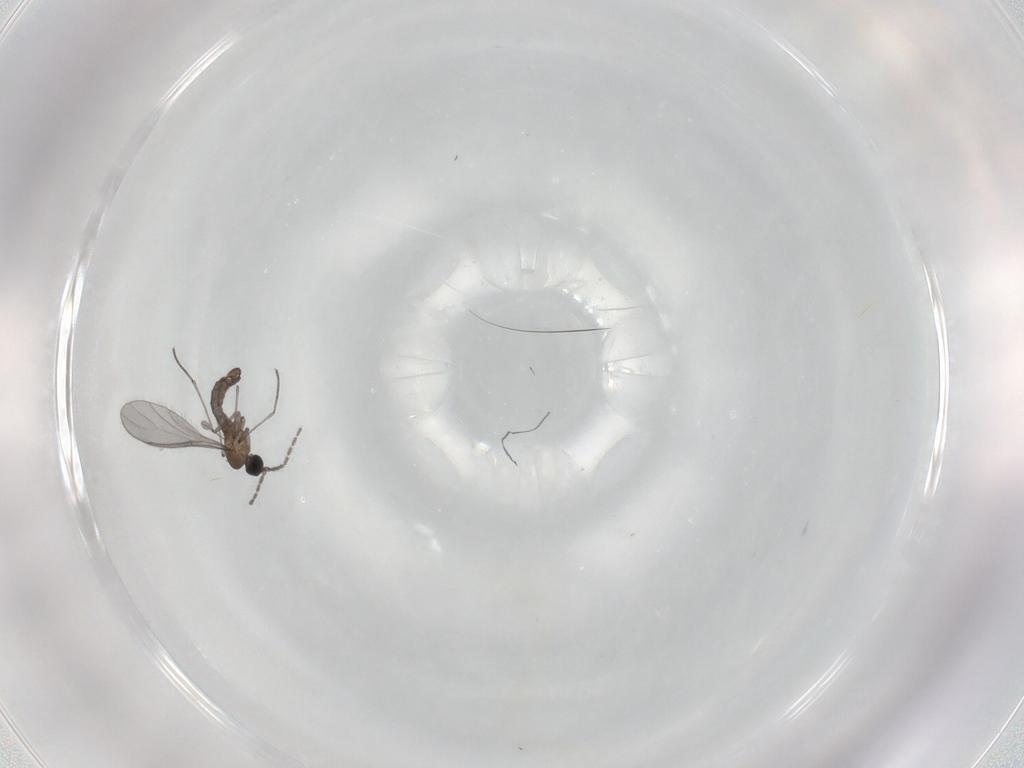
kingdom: Animalia
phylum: Arthropoda
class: Insecta
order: Diptera
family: Sciaridae
